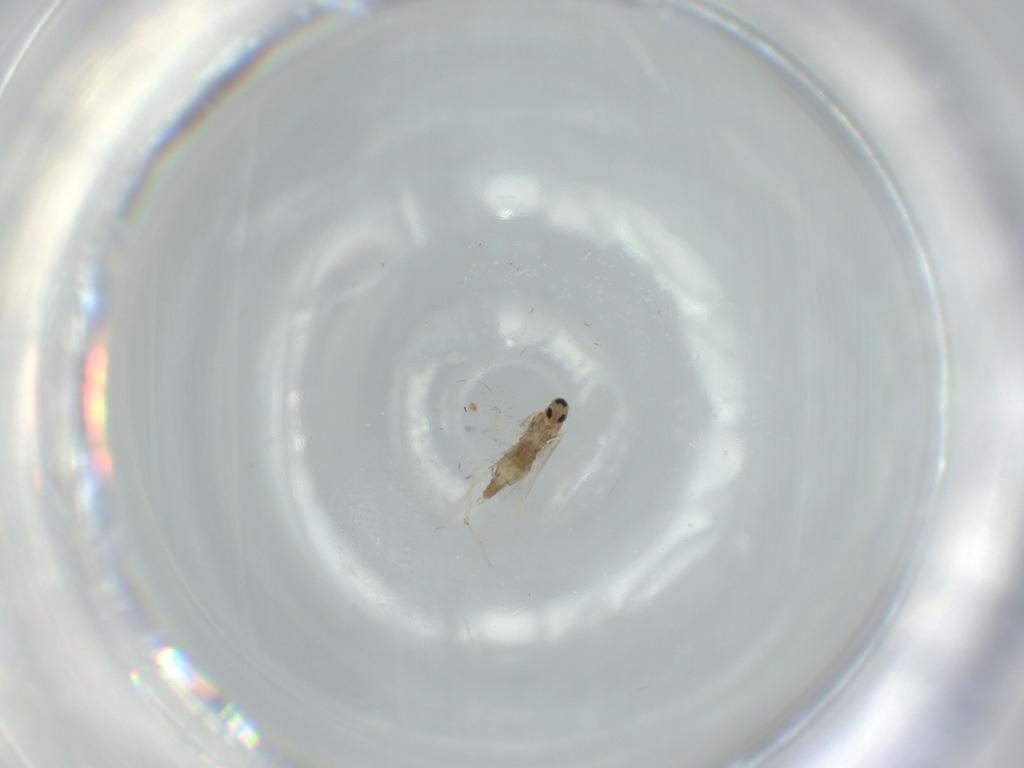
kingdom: Animalia
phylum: Arthropoda
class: Insecta
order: Diptera
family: Cecidomyiidae
